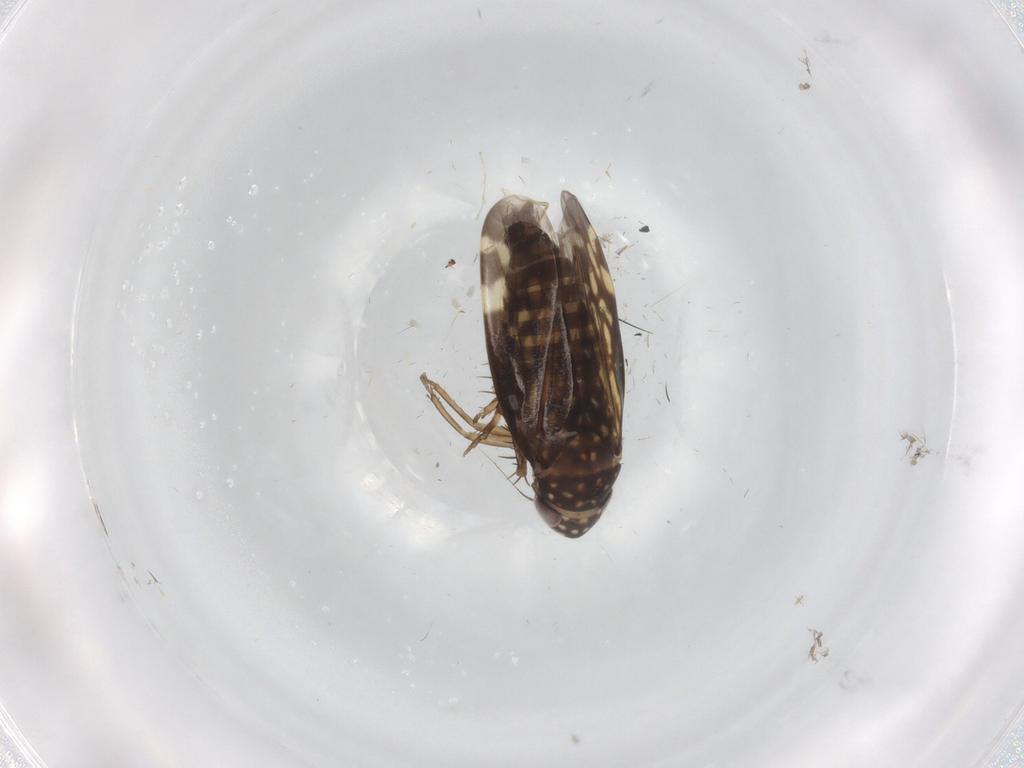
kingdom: Animalia
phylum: Arthropoda
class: Insecta
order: Hemiptera
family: Cicadellidae
